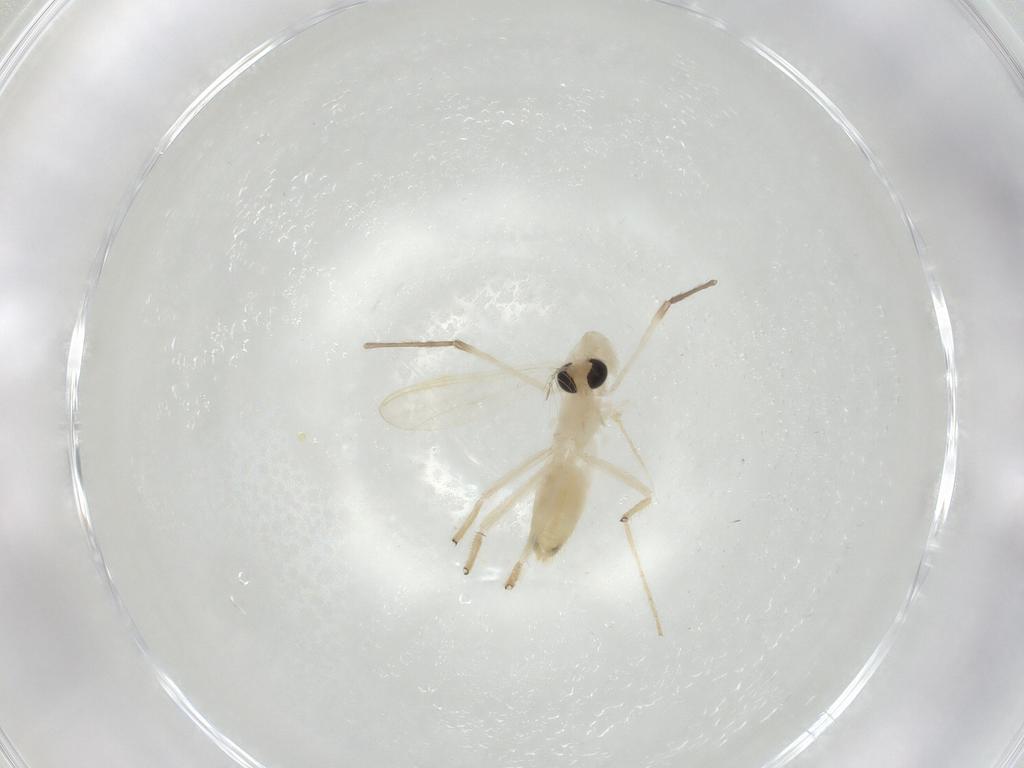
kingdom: Animalia
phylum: Arthropoda
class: Insecta
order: Diptera
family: Chironomidae
